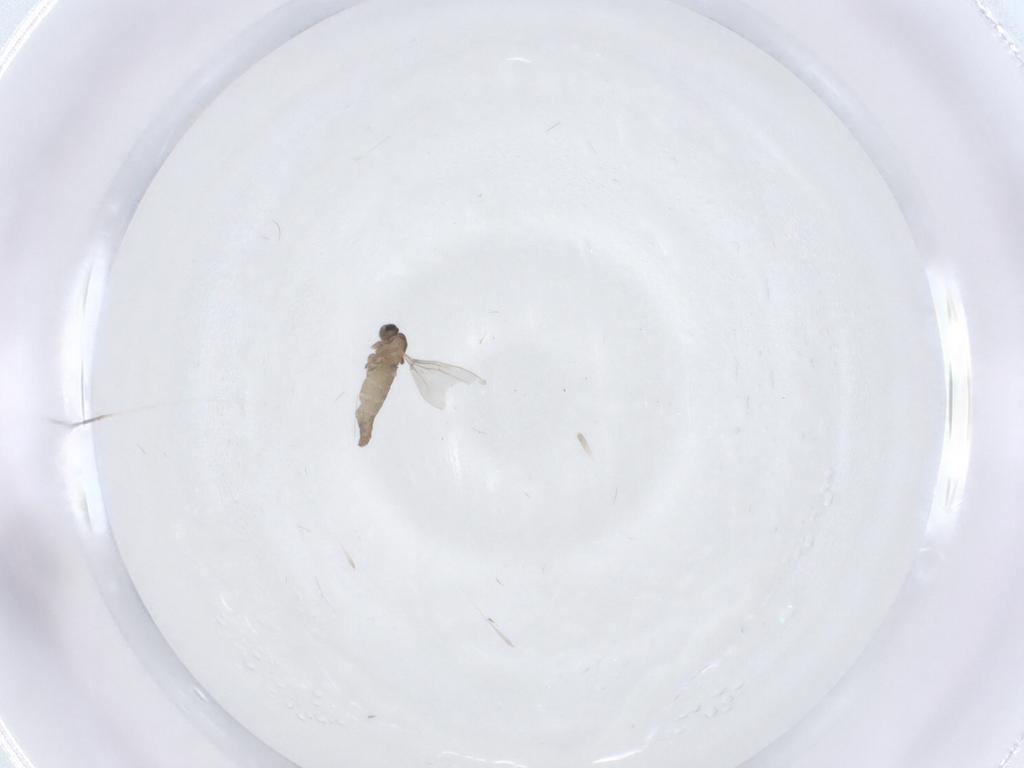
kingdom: Animalia
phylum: Arthropoda
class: Insecta
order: Diptera
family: Cecidomyiidae
